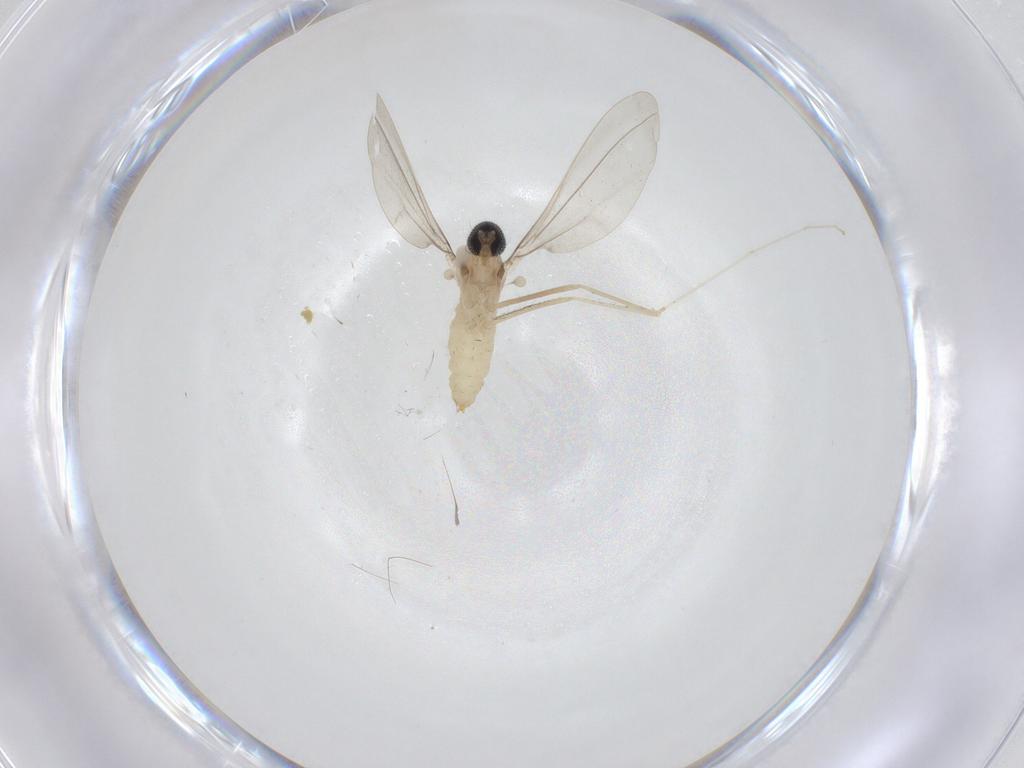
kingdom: Animalia
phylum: Arthropoda
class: Insecta
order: Diptera
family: Cecidomyiidae
